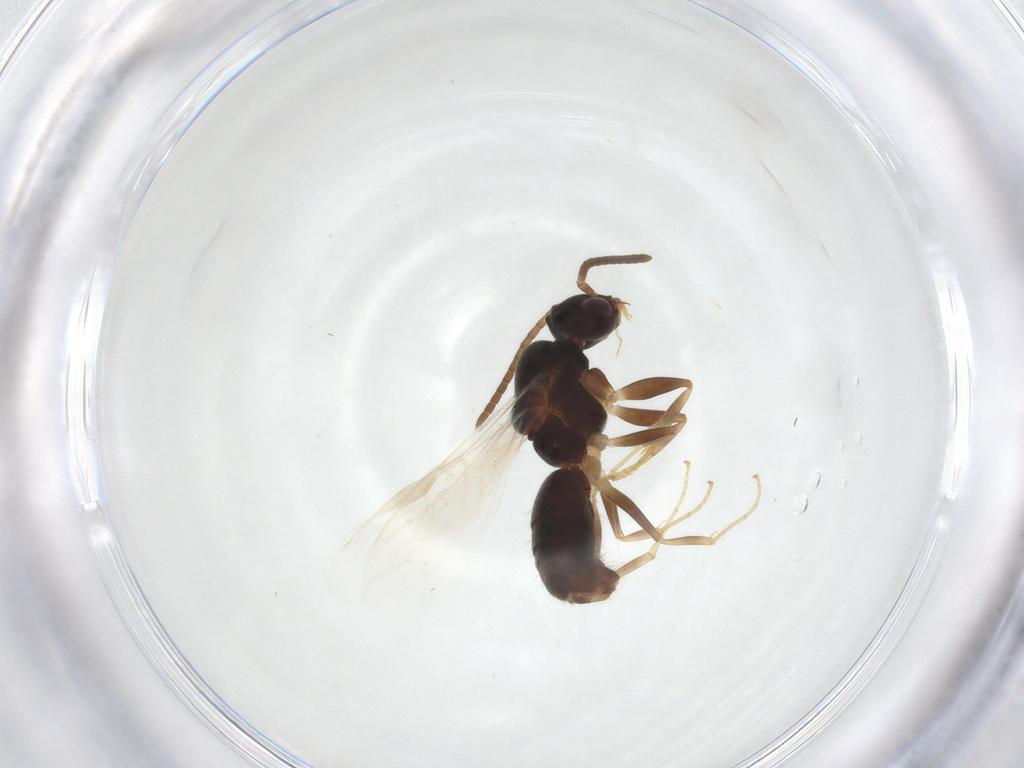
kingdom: Animalia
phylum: Arthropoda
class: Insecta
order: Hymenoptera
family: Formicidae
